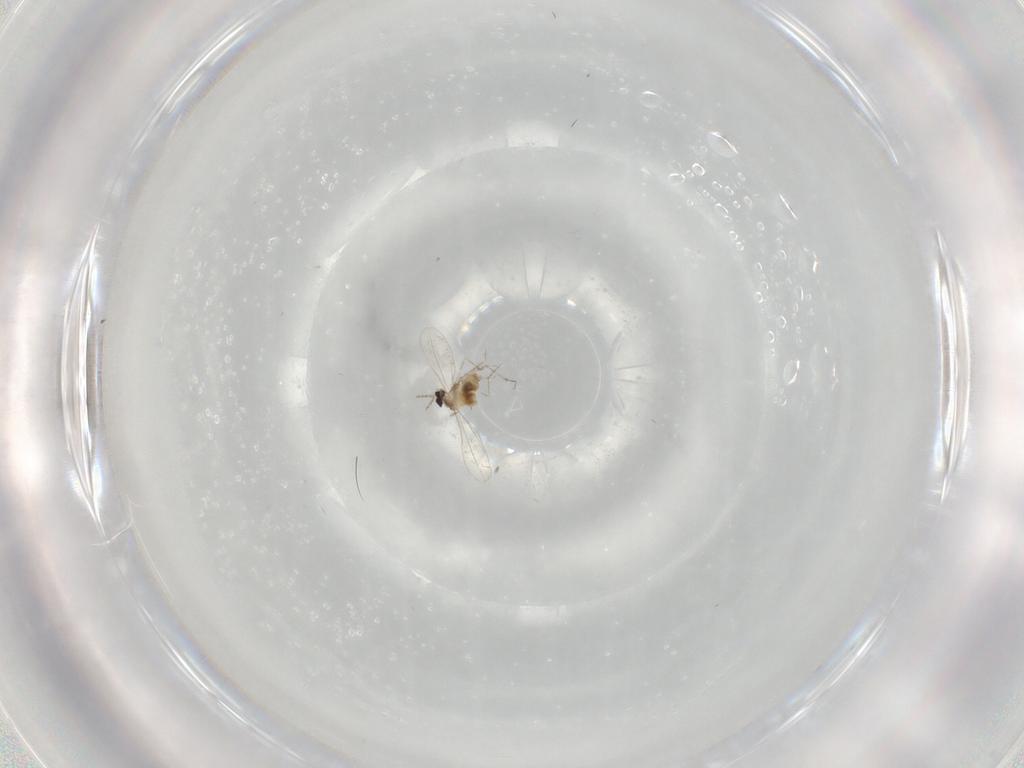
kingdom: Animalia
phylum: Arthropoda
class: Insecta
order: Diptera
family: Cecidomyiidae
